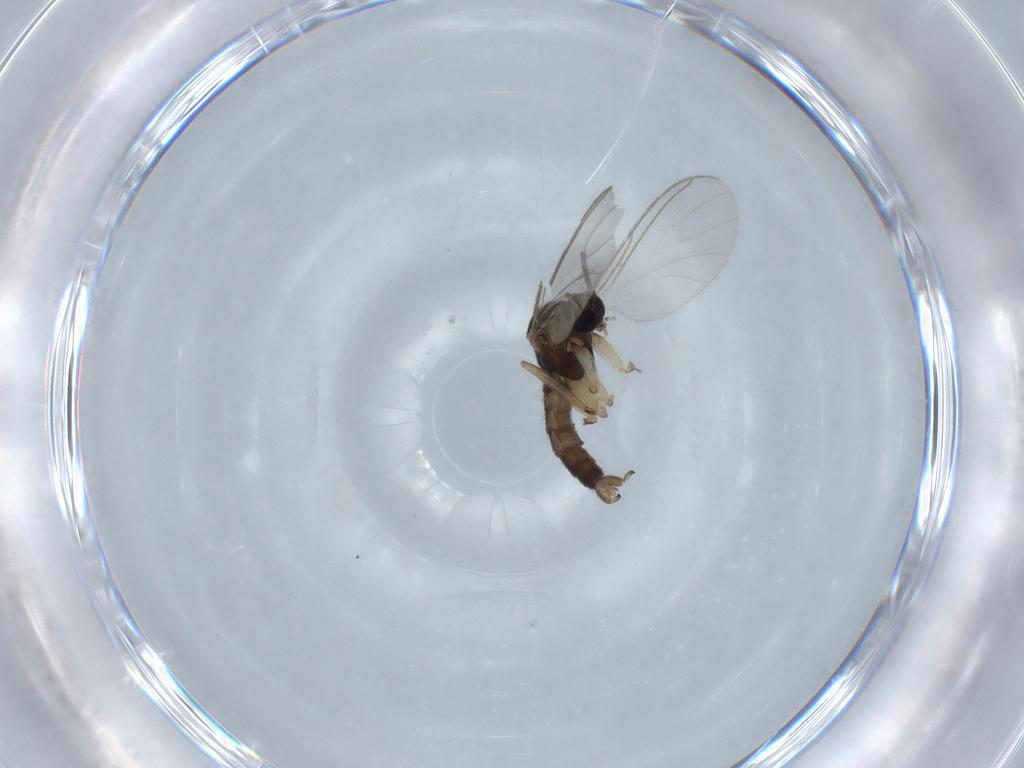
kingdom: Animalia
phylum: Arthropoda
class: Insecta
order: Diptera
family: Sciaridae
